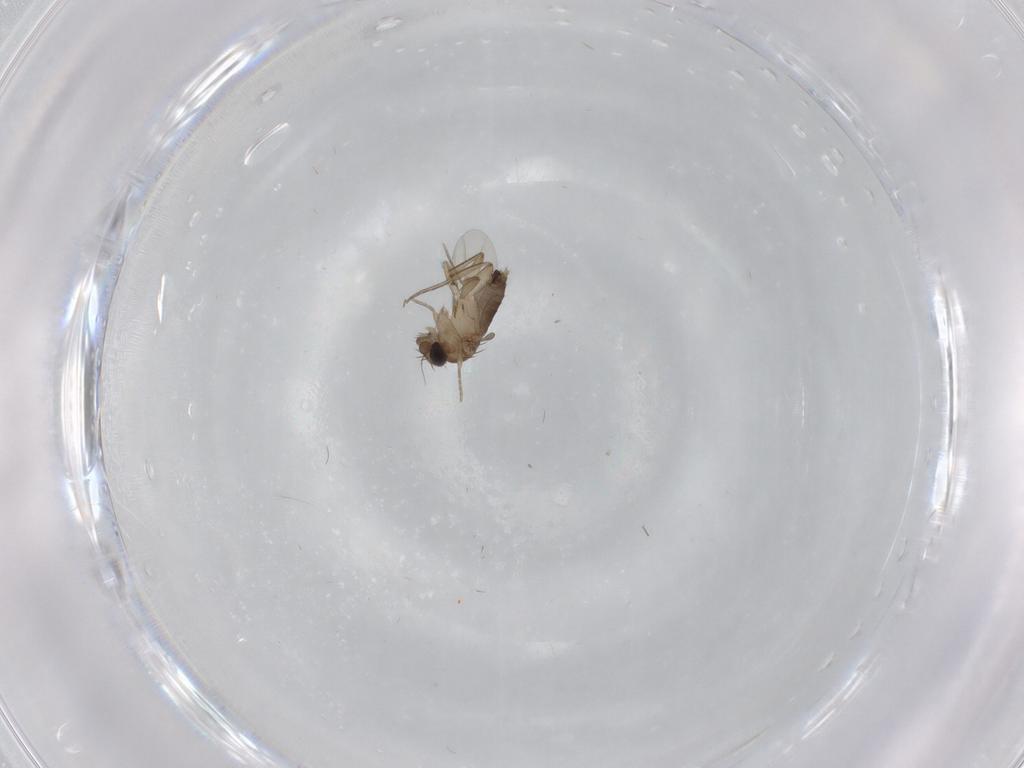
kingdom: Animalia
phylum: Arthropoda
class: Insecta
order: Diptera
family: Phoridae
